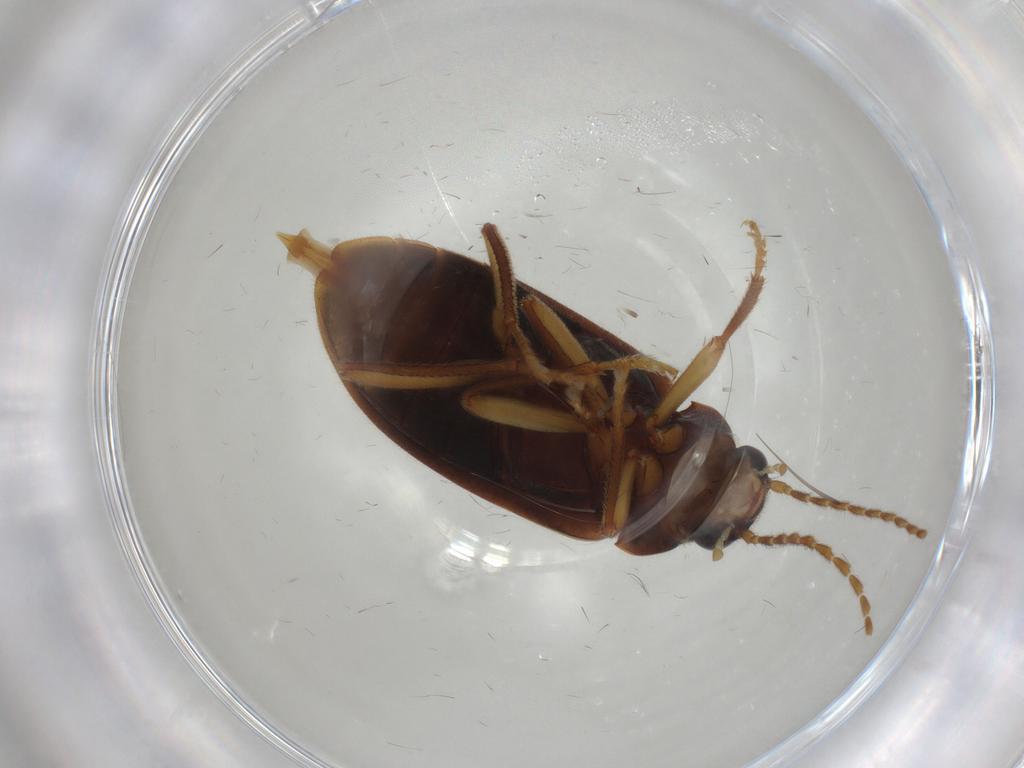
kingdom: Animalia
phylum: Arthropoda
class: Insecta
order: Coleoptera
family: Ptilodactylidae
